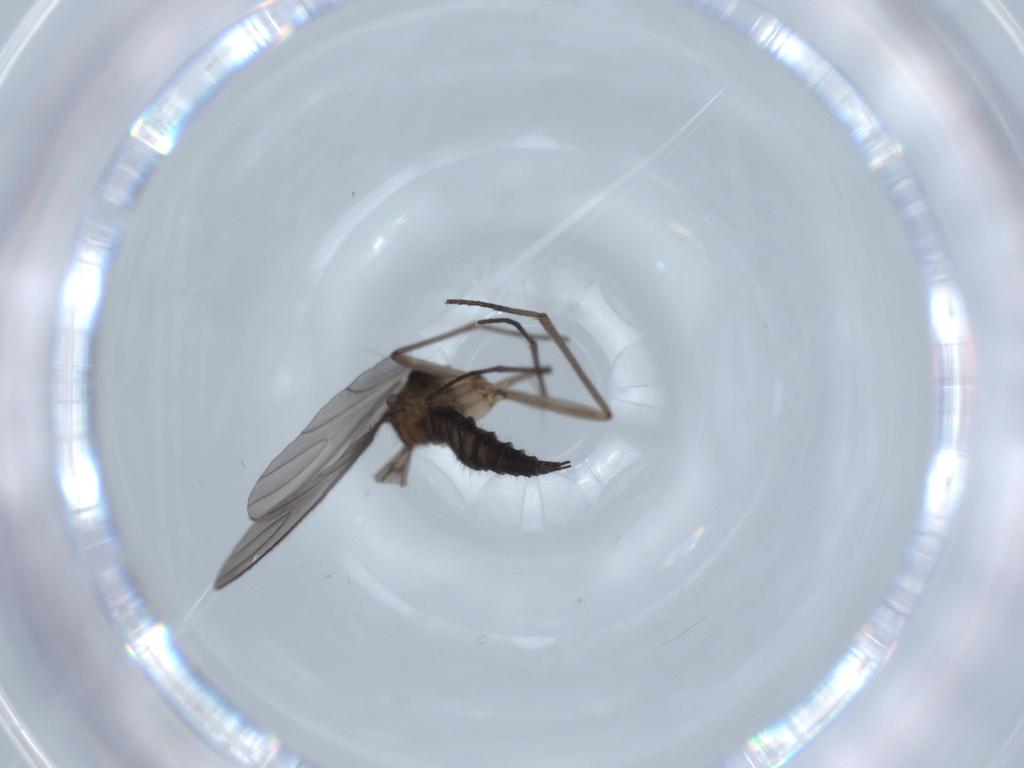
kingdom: Animalia
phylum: Arthropoda
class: Insecta
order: Diptera
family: Sciaridae
